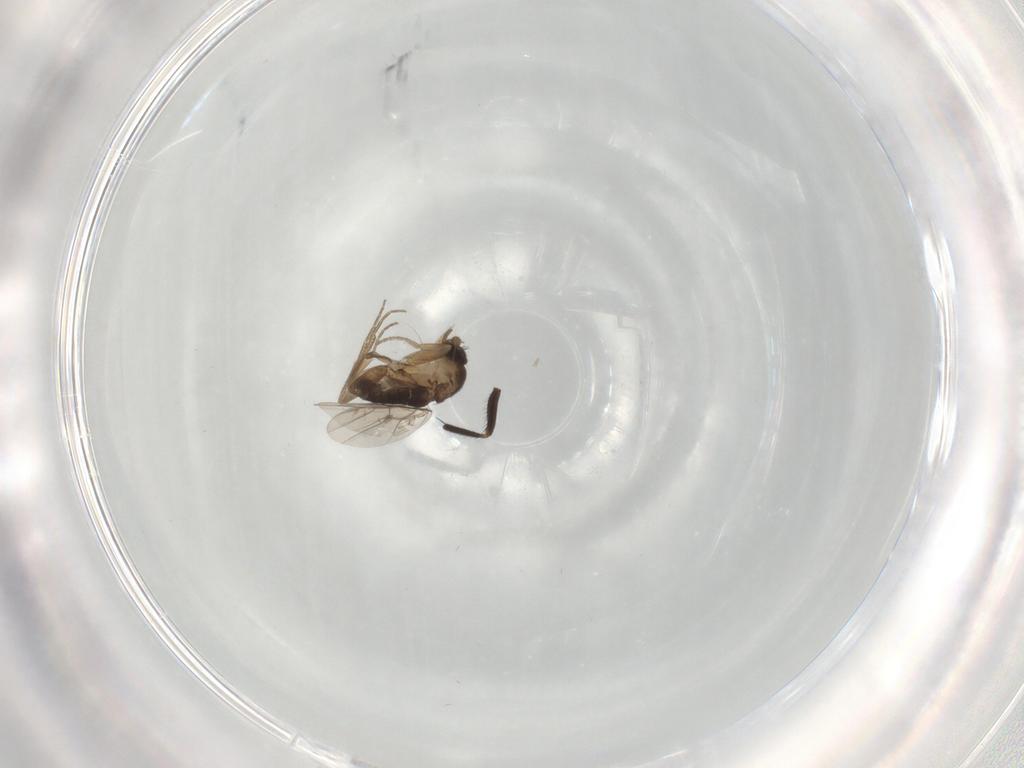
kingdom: Animalia
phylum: Arthropoda
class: Insecta
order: Diptera
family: Phoridae
